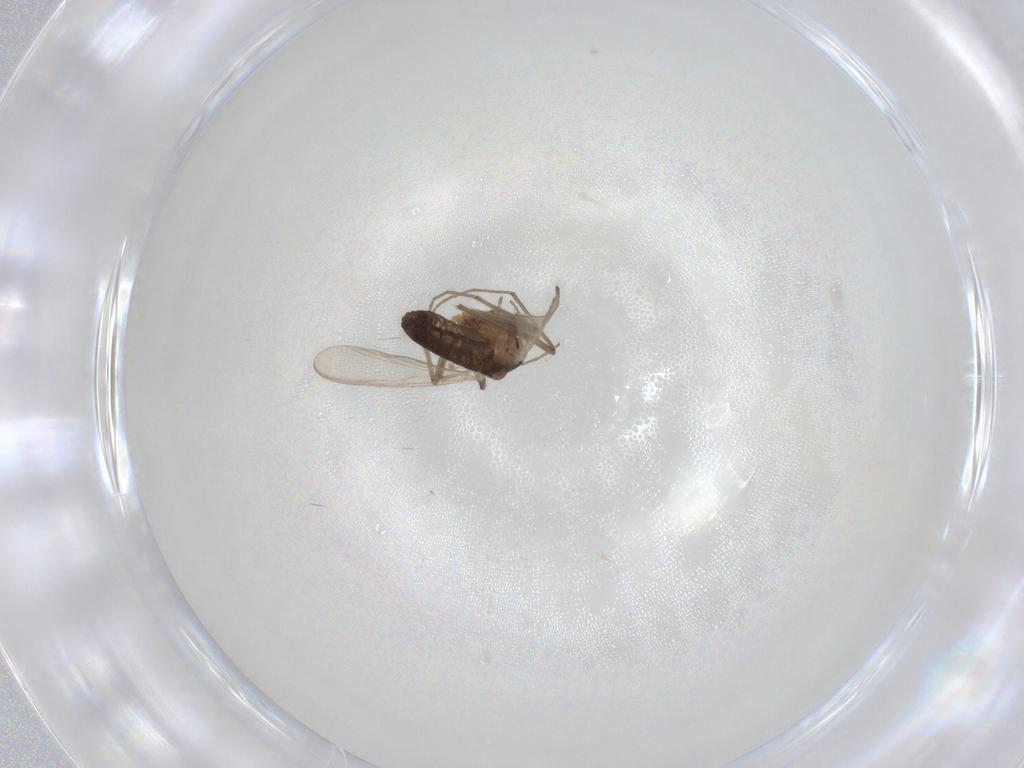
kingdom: Animalia
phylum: Arthropoda
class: Insecta
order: Diptera
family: Chironomidae
